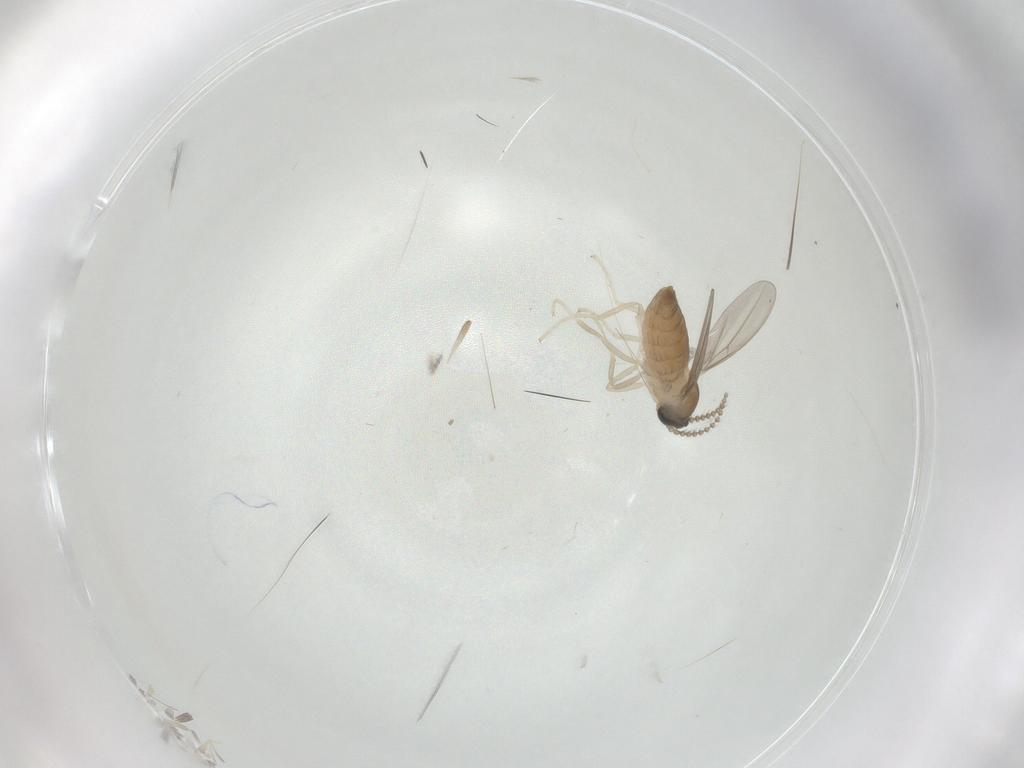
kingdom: Animalia
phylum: Arthropoda
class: Insecta
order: Diptera
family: Cecidomyiidae
